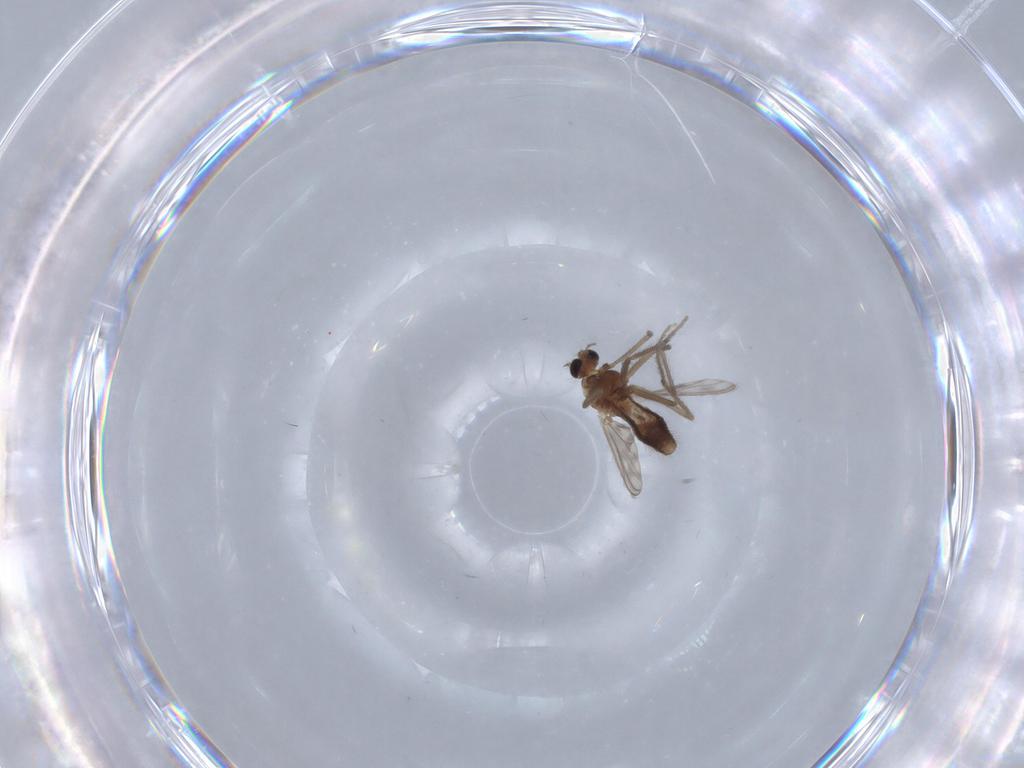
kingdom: Animalia
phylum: Arthropoda
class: Insecta
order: Diptera
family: Chironomidae
